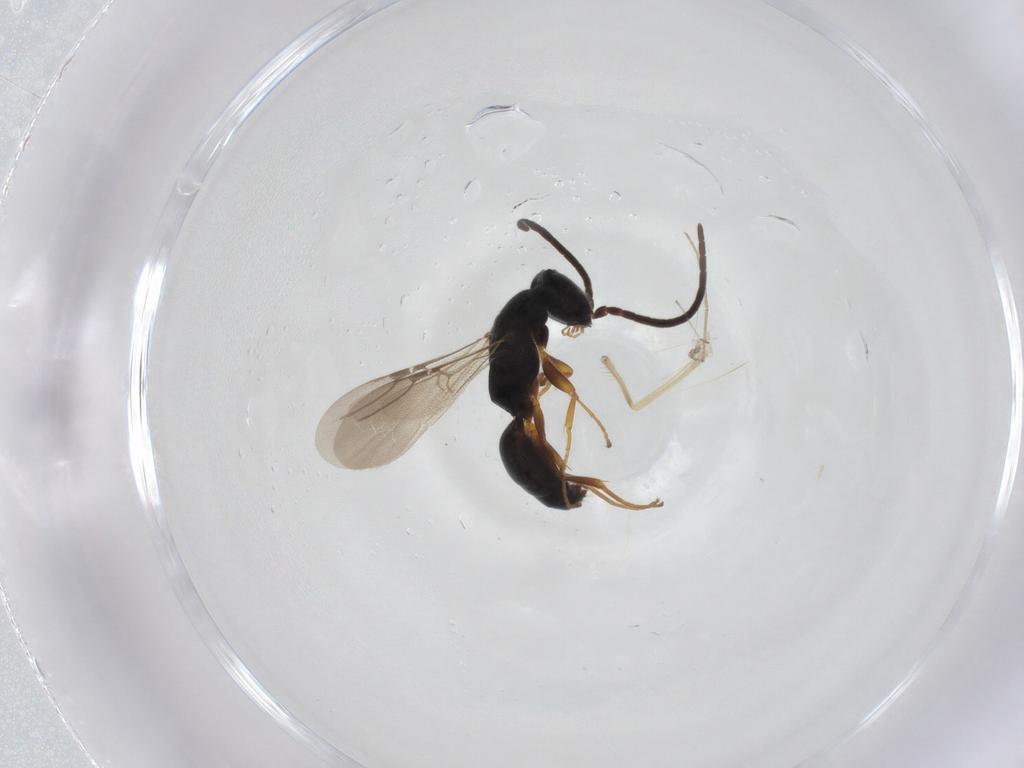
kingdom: Animalia
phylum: Arthropoda
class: Insecta
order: Hymenoptera
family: Bethylidae
